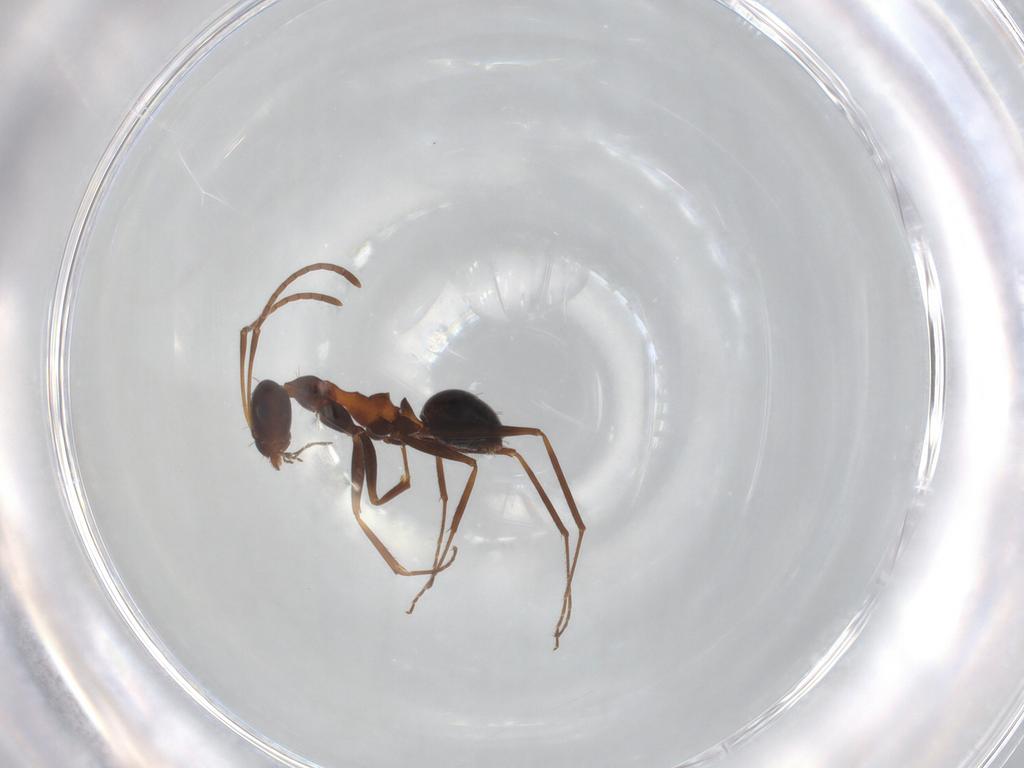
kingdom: Animalia
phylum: Arthropoda
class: Insecta
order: Hymenoptera
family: Formicidae
